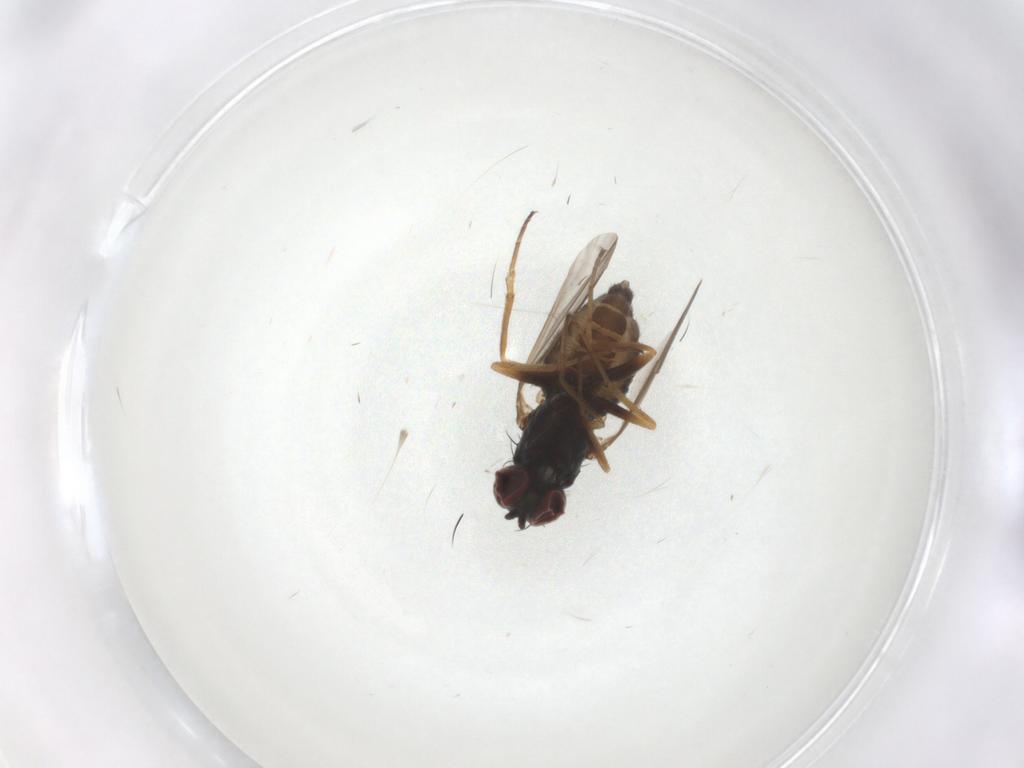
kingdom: Animalia
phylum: Arthropoda
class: Insecta
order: Diptera
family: Dolichopodidae
